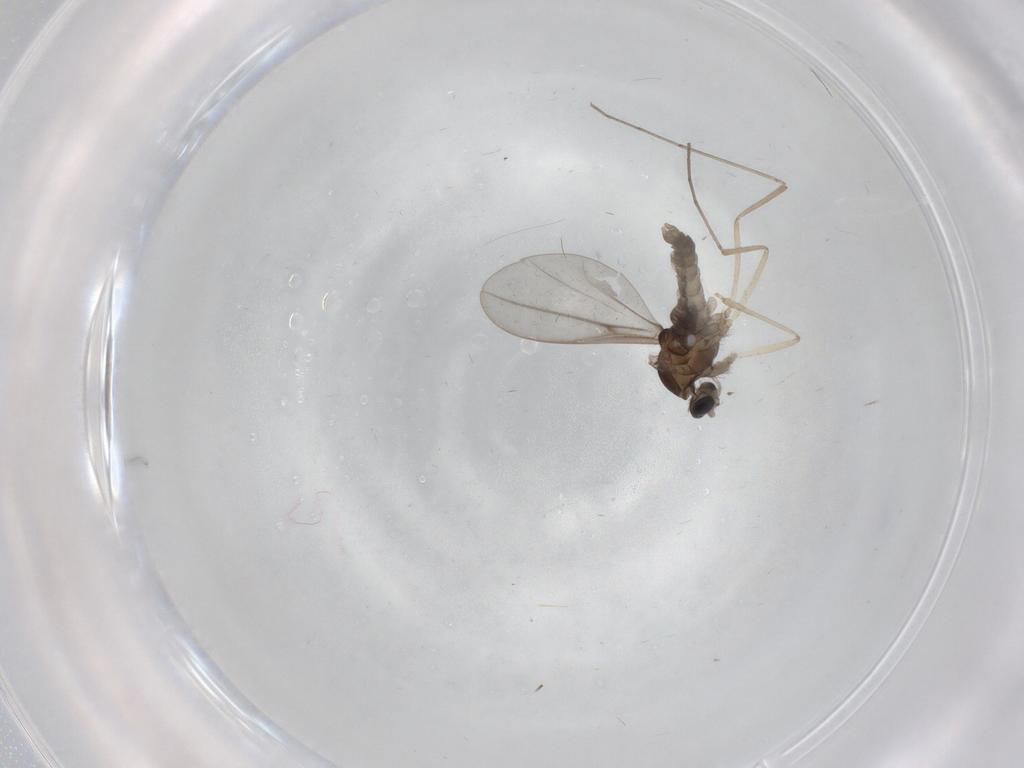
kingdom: Animalia
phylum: Arthropoda
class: Insecta
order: Diptera
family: Cecidomyiidae
